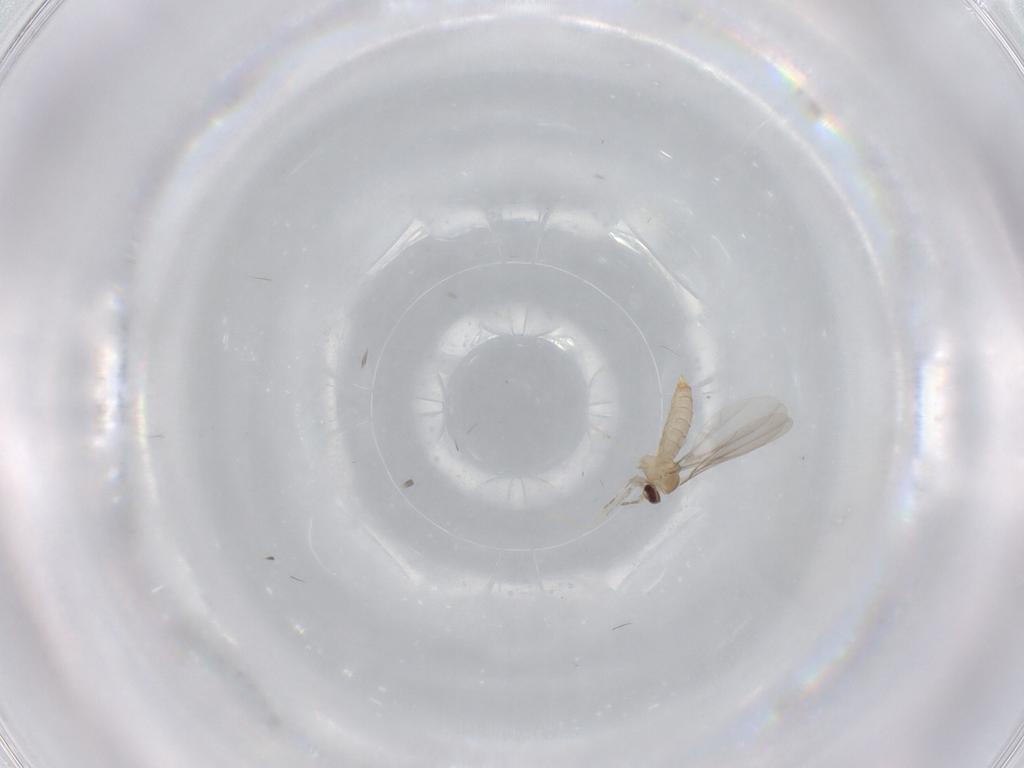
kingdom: Animalia
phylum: Arthropoda
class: Insecta
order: Diptera
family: Cecidomyiidae
